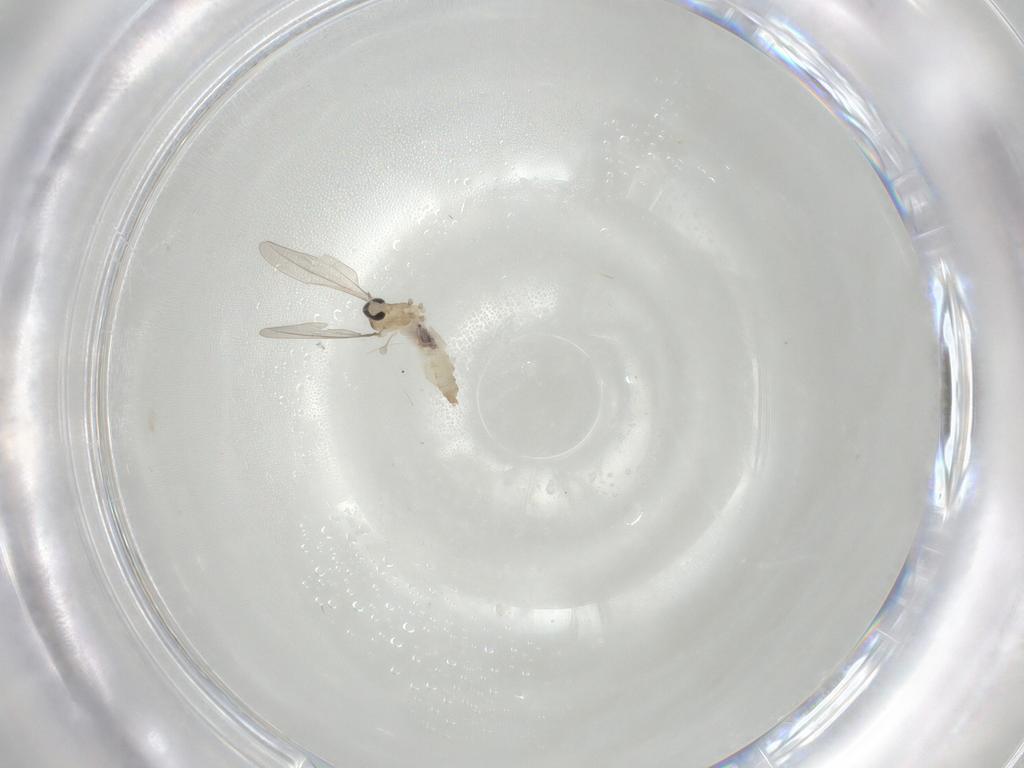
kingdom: Animalia
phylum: Arthropoda
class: Insecta
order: Diptera
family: Cecidomyiidae
